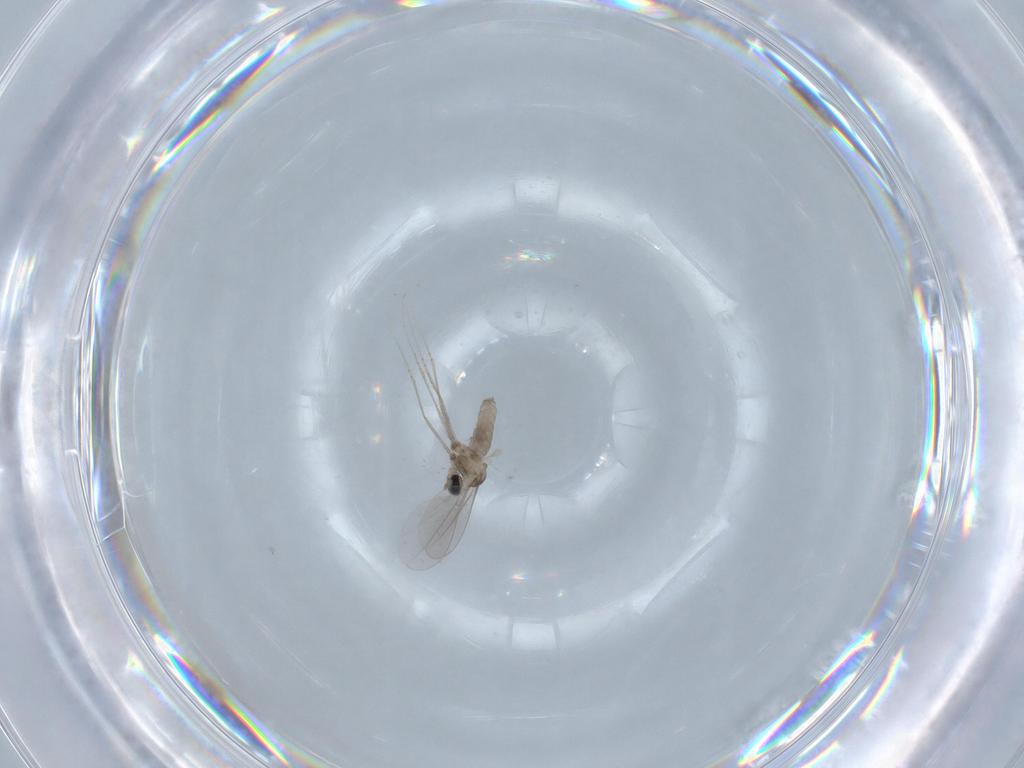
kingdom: Animalia
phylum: Arthropoda
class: Insecta
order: Diptera
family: Cecidomyiidae
